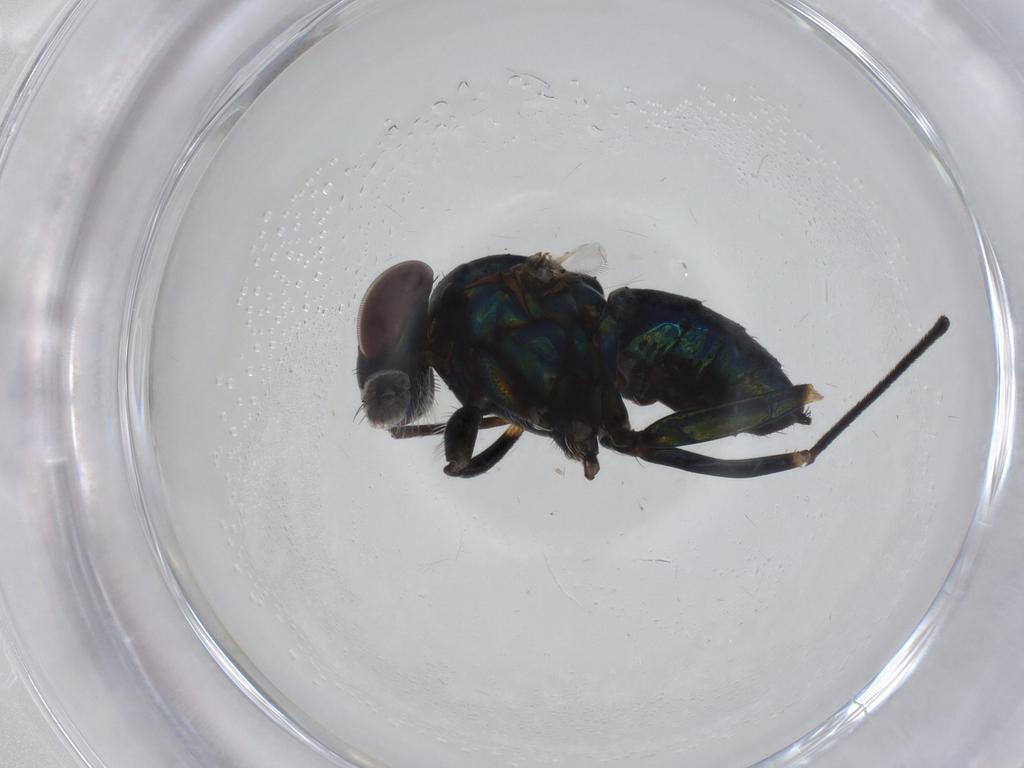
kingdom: Animalia
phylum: Arthropoda
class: Insecta
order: Diptera
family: Dolichopodidae
